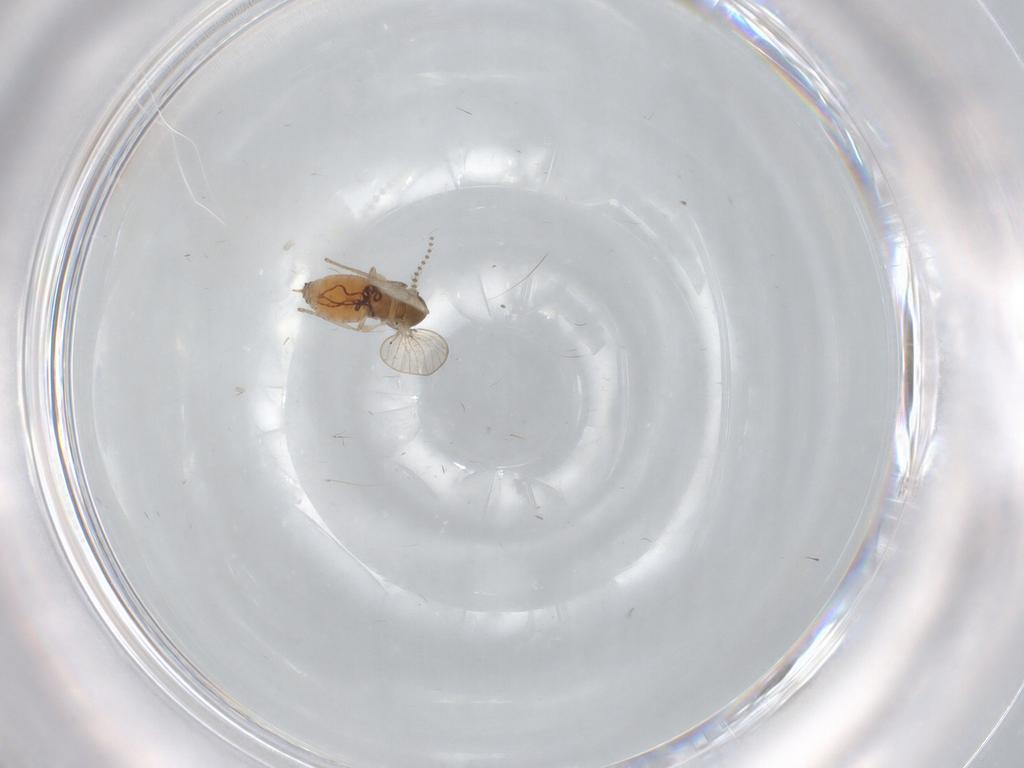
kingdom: Animalia
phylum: Arthropoda
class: Insecta
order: Diptera
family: Psychodidae
